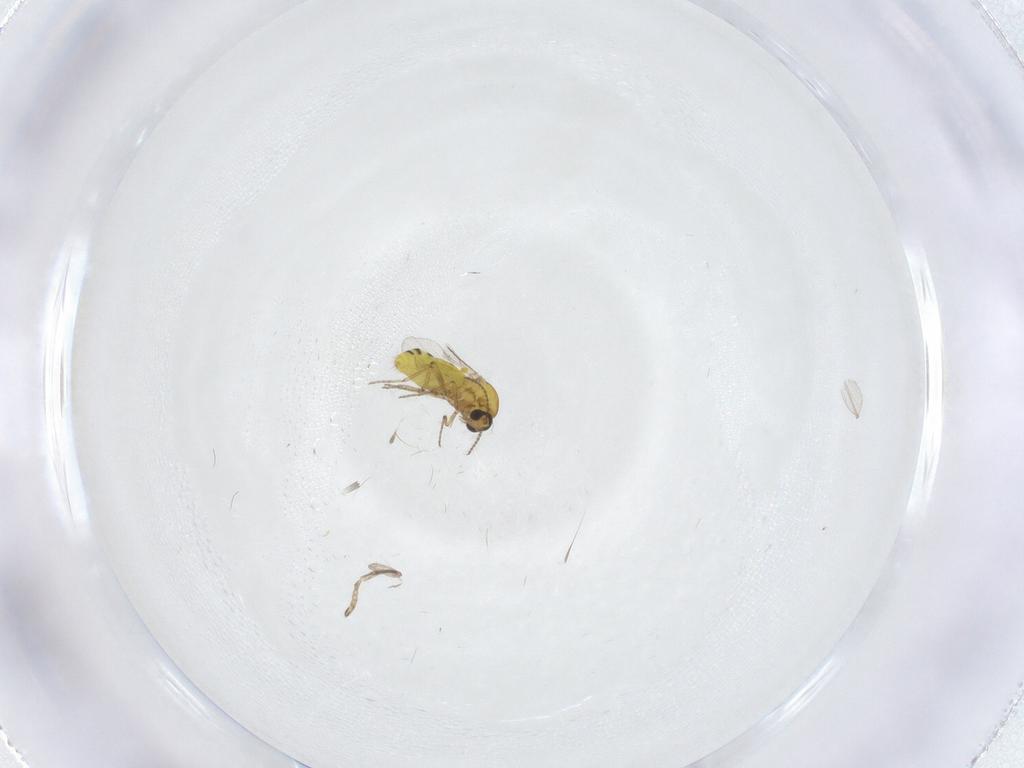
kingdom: Animalia
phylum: Arthropoda
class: Insecta
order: Diptera
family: Ceratopogonidae
